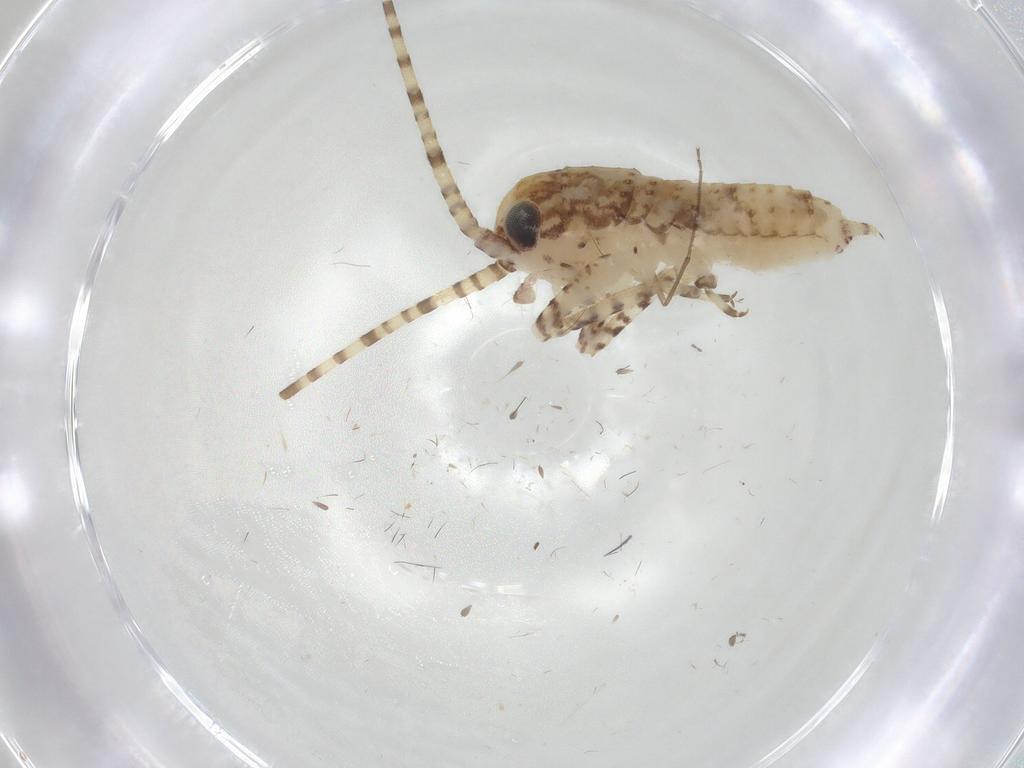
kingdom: Animalia
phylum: Arthropoda
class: Insecta
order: Orthoptera
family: Gryllidae
